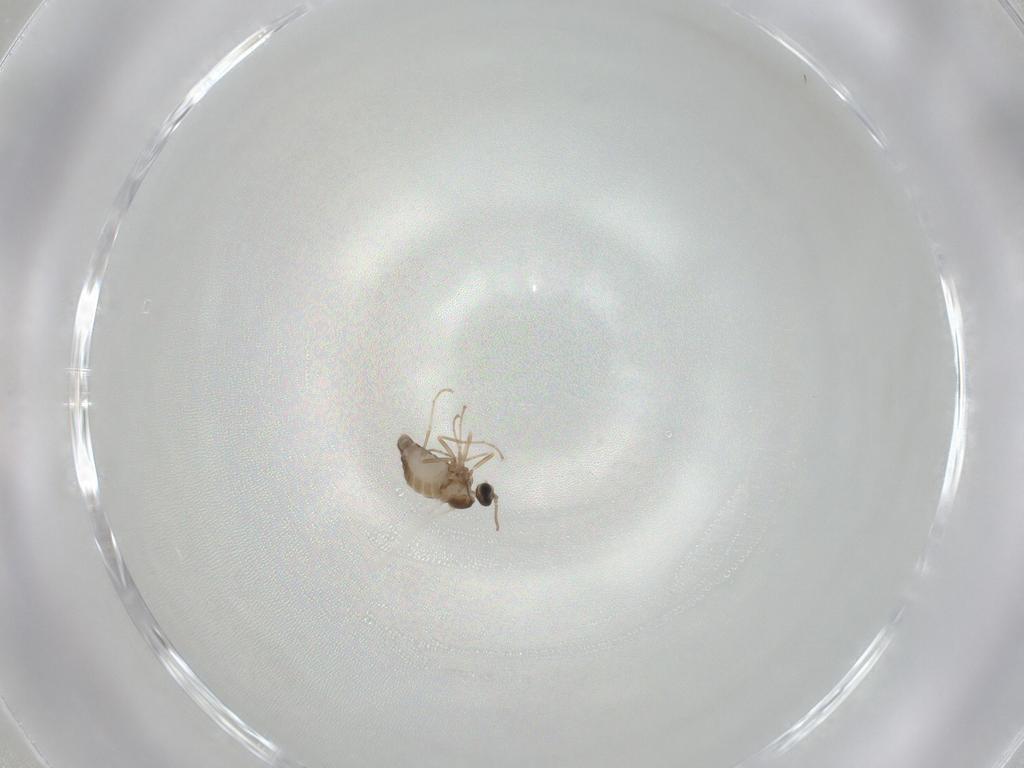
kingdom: Animalia
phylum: Arthropoda
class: Insecta
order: Diptera
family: Cecidomyiidae
